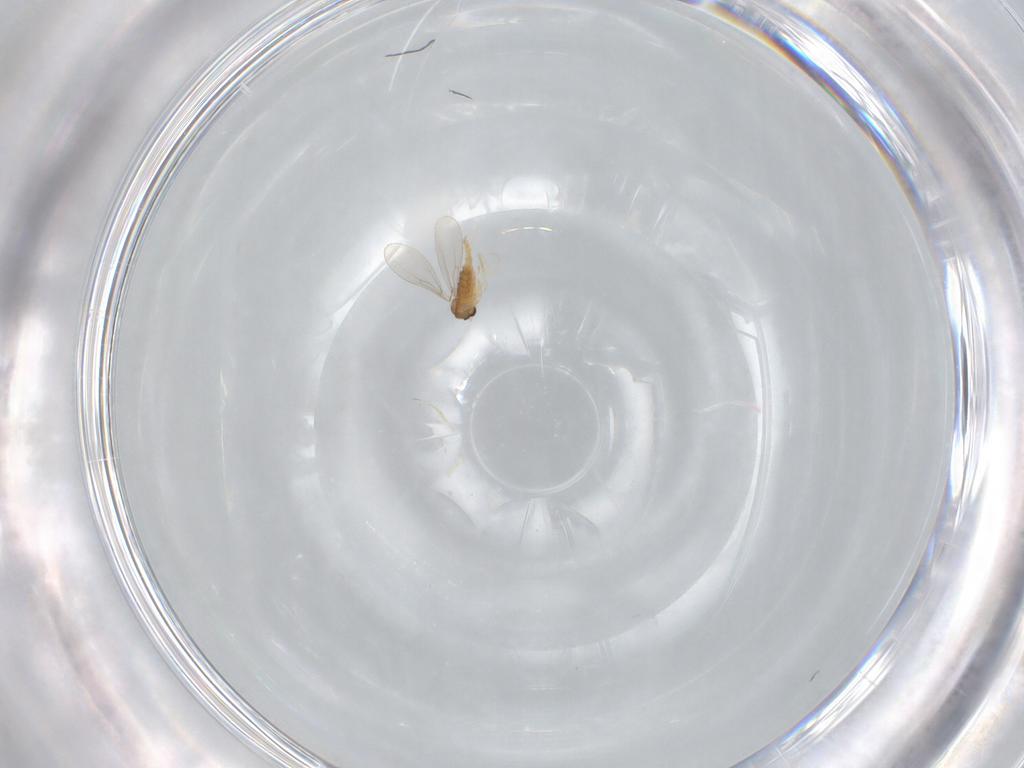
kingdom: Animalia
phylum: Arthropoda
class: Insecta
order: Diptera
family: Cecidomyiidae
